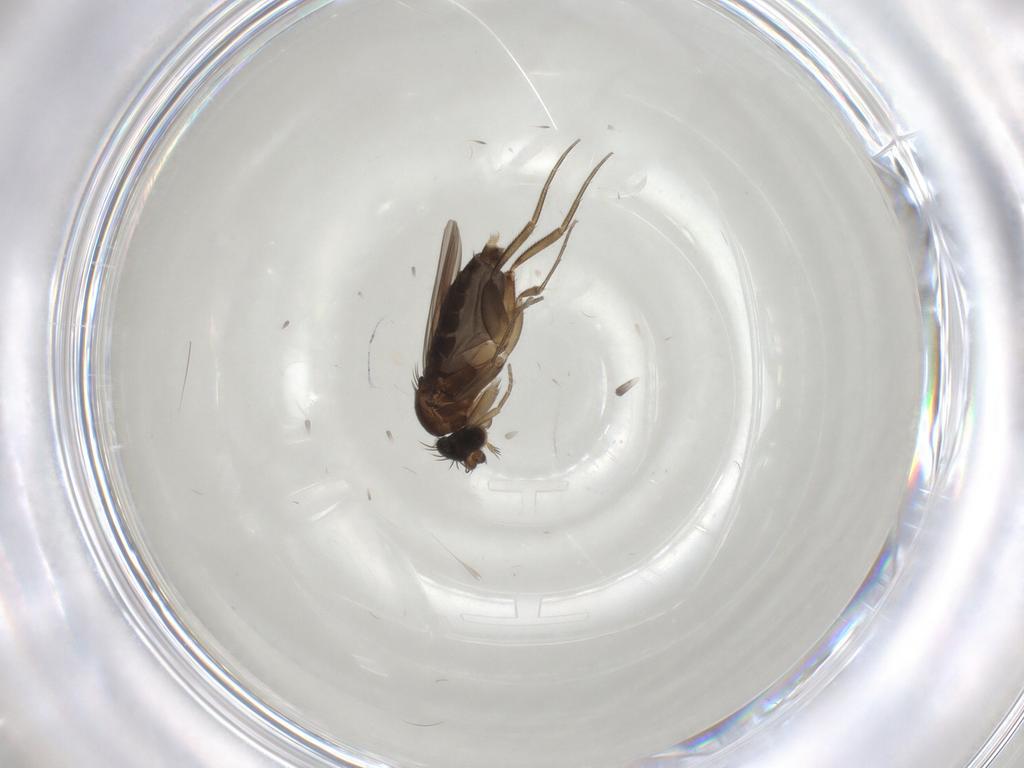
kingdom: Animalia
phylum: Arthropoda
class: Insecta
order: Diptera
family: Phoridae
